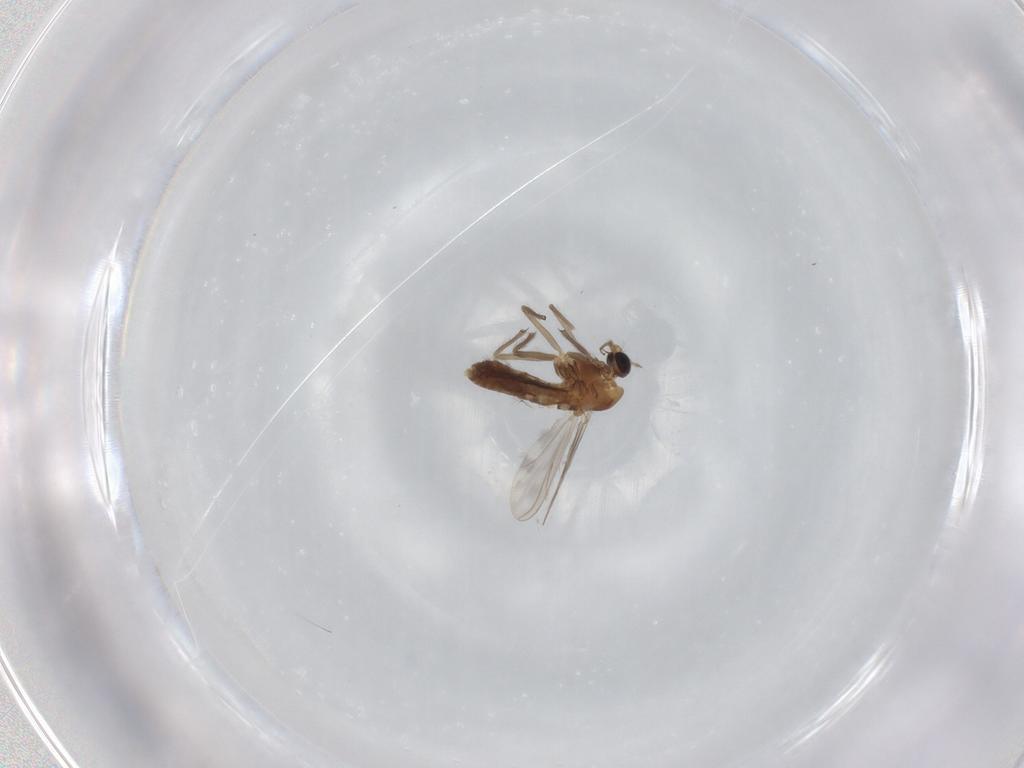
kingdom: Animalia
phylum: Arthropoda
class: Insecta
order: Diptera
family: Chironomidae
